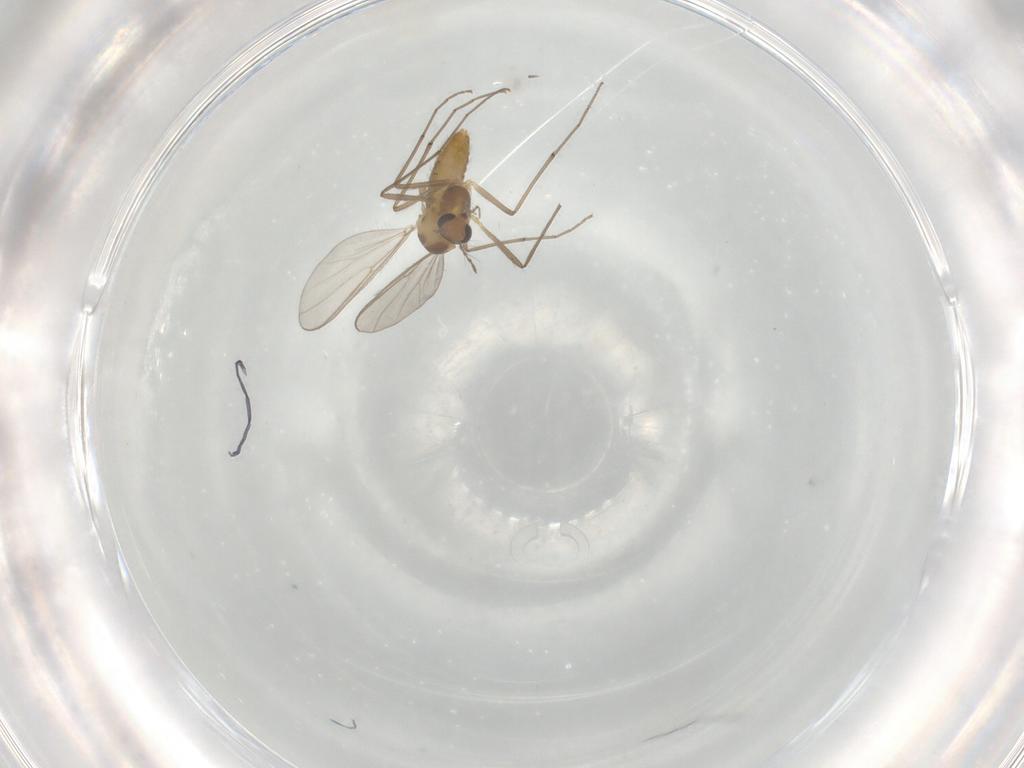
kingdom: Animalia
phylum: Arthropoda
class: Insecta
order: Diptera
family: Chironomidae
